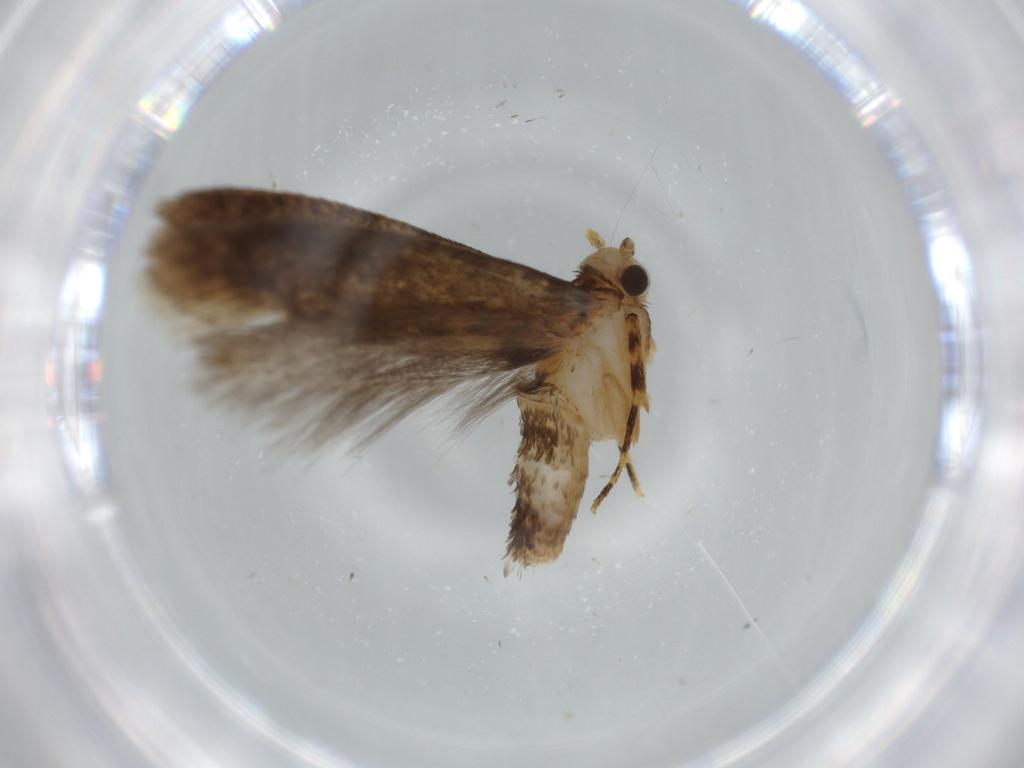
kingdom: Animalia
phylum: Arthropoda
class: Insecta
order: Lepidoptera
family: Tineidae
